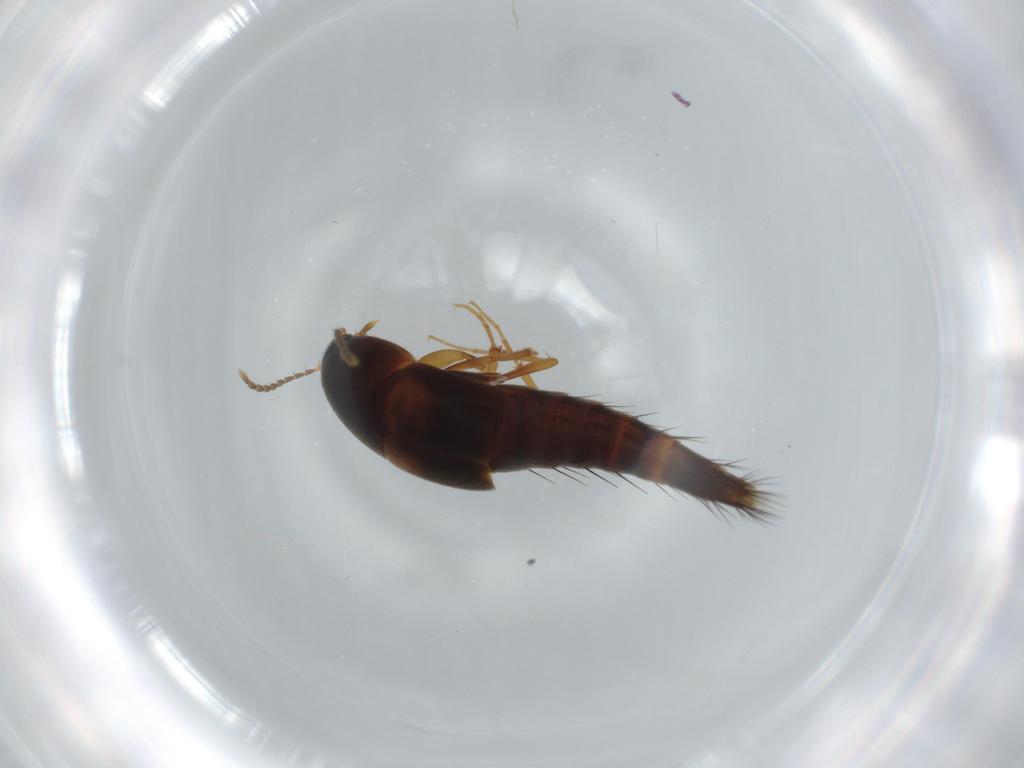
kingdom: Animalia
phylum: Arthropoda
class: Insecta
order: Coleoptera
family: Staphylinidae
